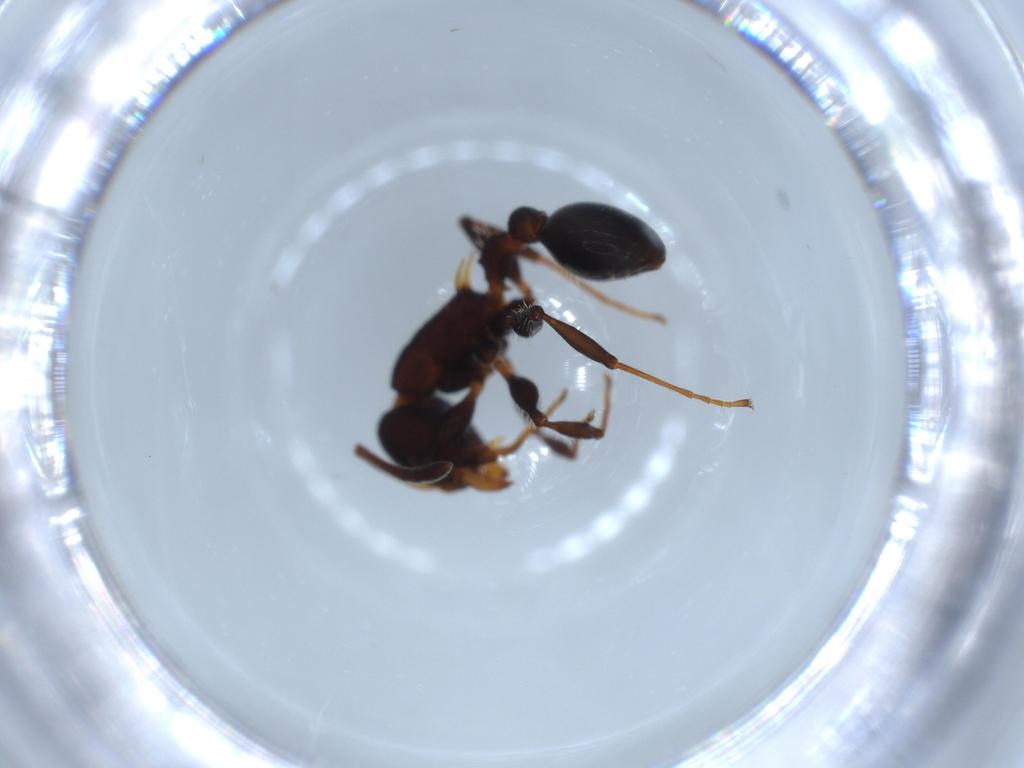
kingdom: Animalia
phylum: Arthropoda
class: Insecta
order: Hymenoptera
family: Formicidae
